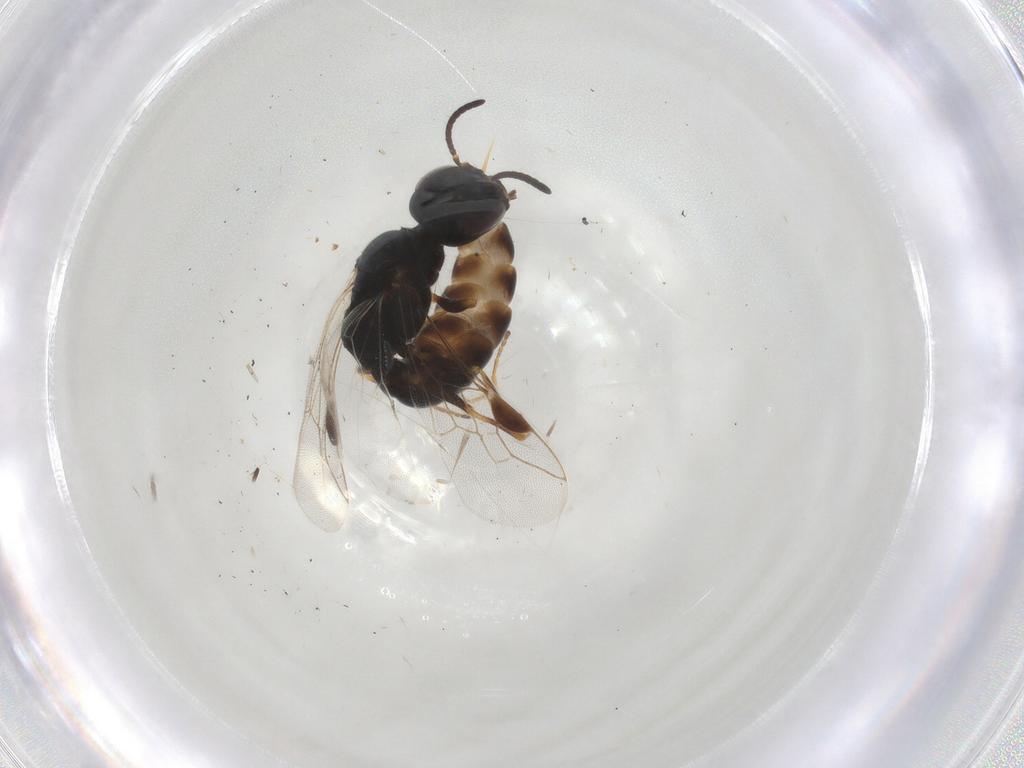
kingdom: Animalia
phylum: Arthropoda
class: Insecta
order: Hymenoptera
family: Pemphredonidae
